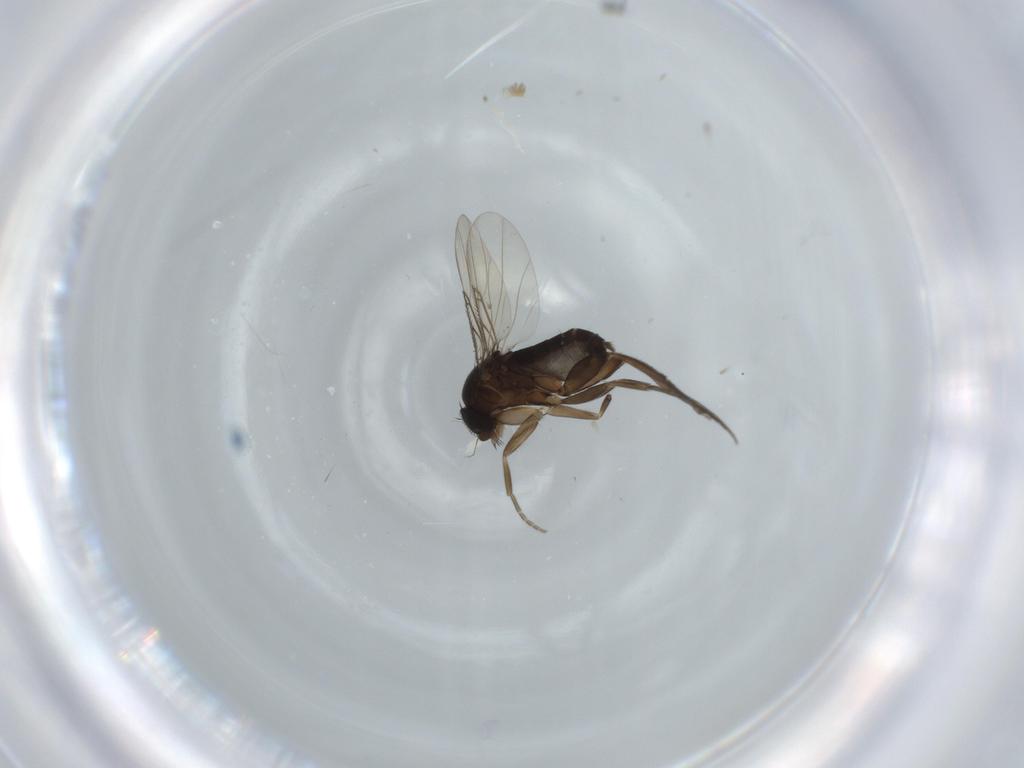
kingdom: Animalia
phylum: Arthropoda
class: Insecta
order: Diptera
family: Phoridae
